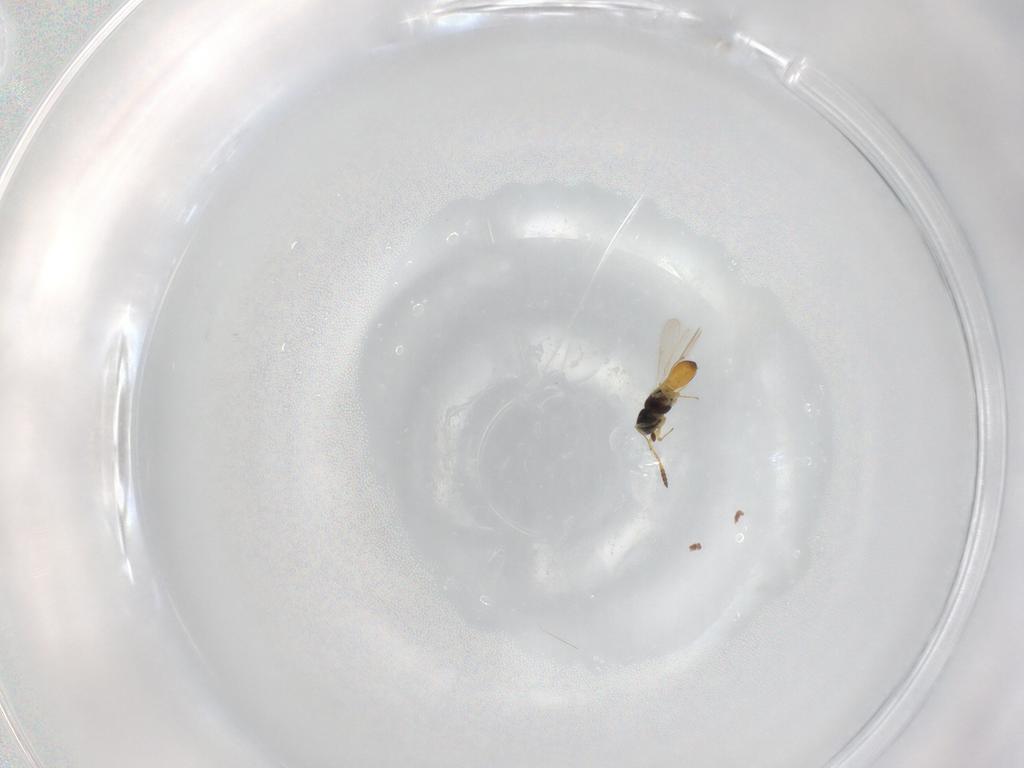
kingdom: Animalia
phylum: Arthropoda
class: Insecta
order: Hymenoptera
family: Scelionidae
